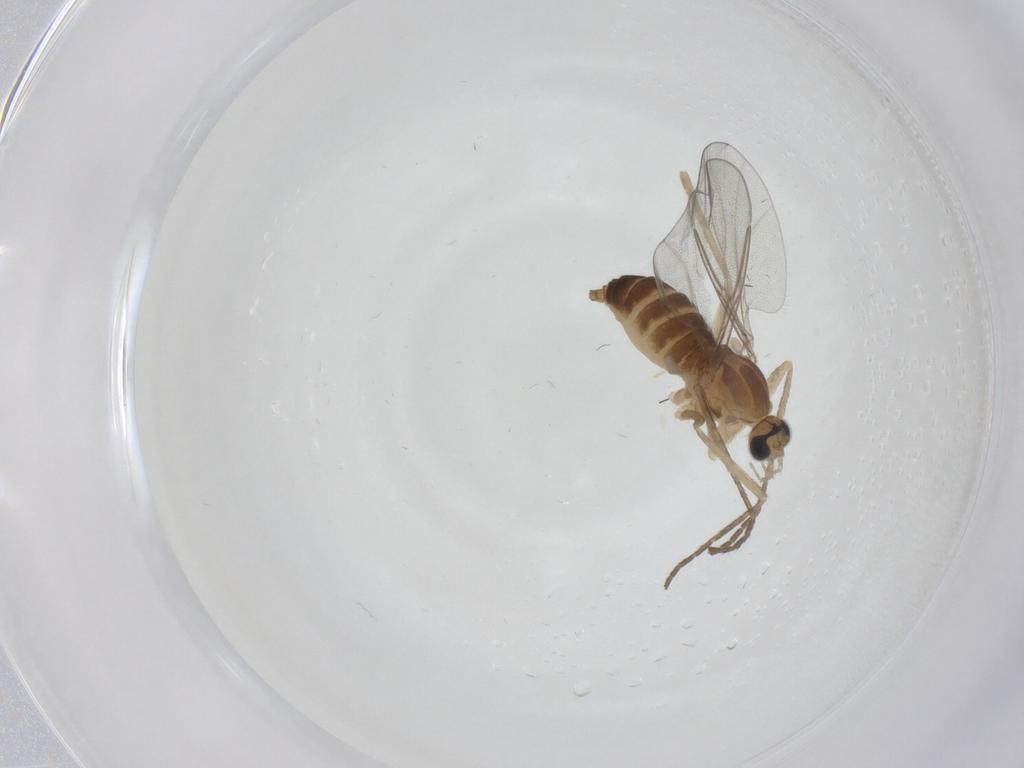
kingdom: Animalia
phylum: Arthropoda
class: Insecta
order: Diptera
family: Cecidomyiidae
